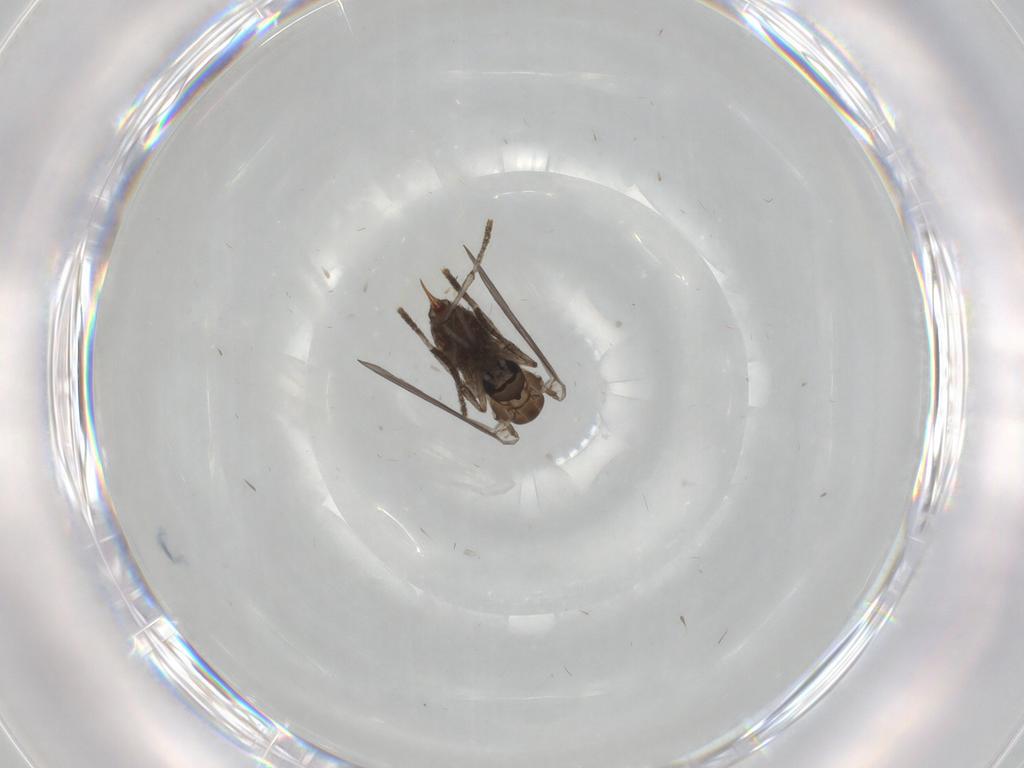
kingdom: Animalia
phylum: Arthropoda
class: Insecta
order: Diptera
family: Psychodidae
